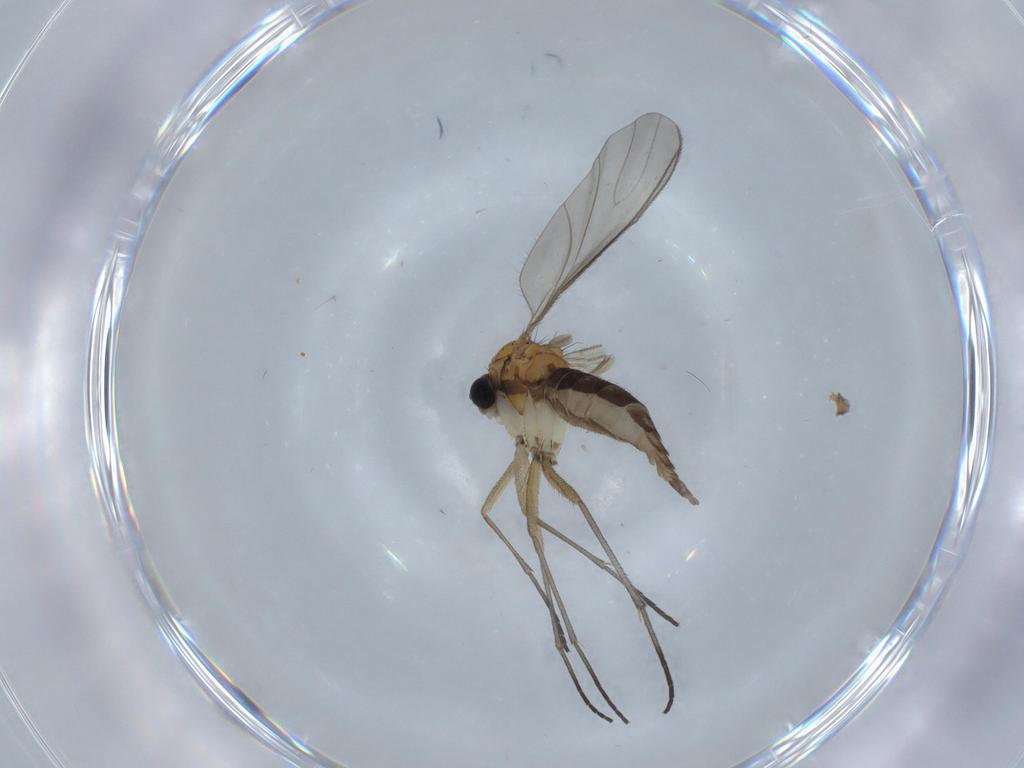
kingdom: Animalia
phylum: Arthropoda
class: Insecta
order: Diptera
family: Sciaridae
